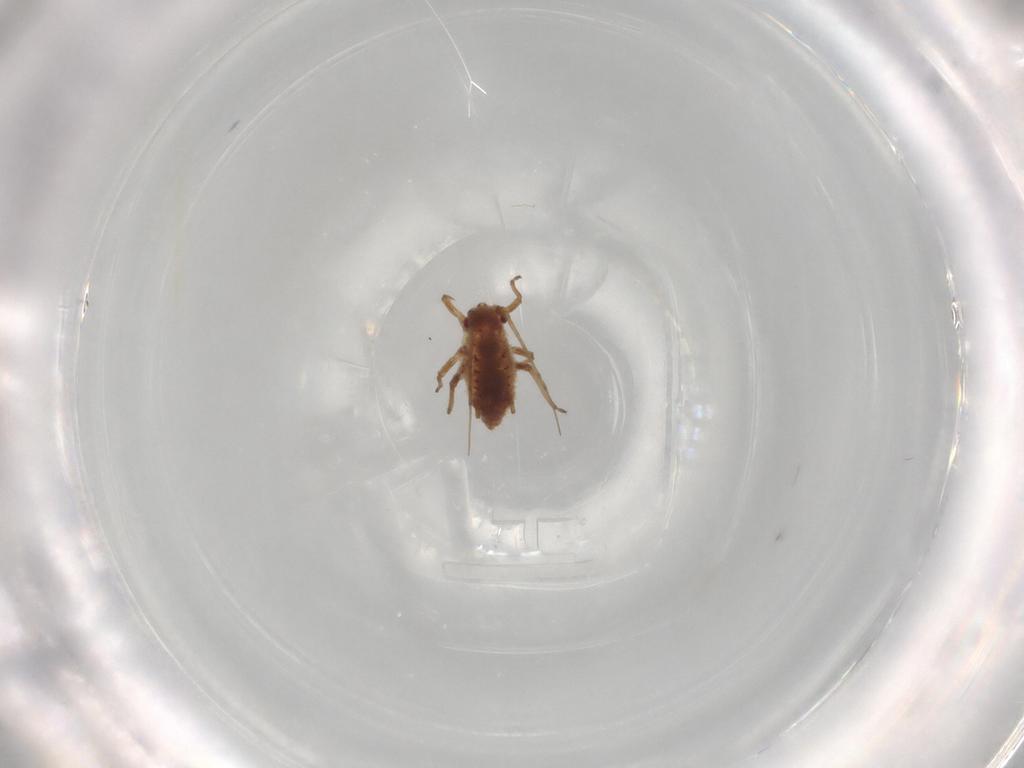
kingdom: Animalia
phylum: Arthropoda
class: Insecta
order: Hemiptera
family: Aphididae
